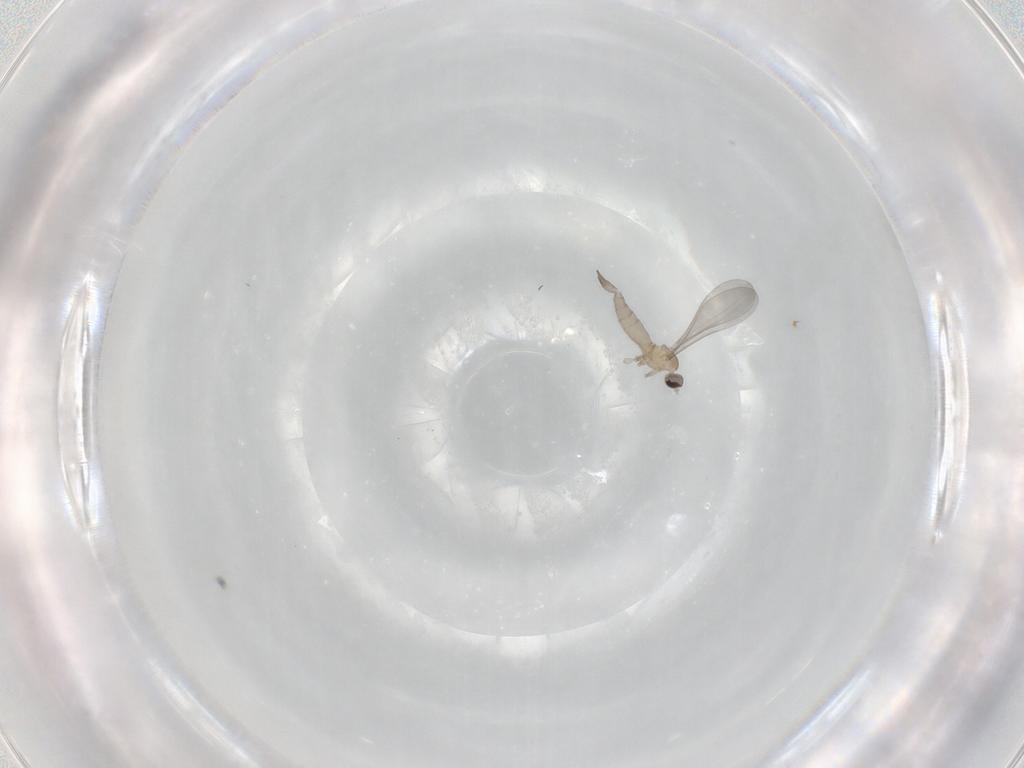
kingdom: Animalia
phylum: Arthropoda
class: Insecta
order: Diptera
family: Cecidomyiidae
